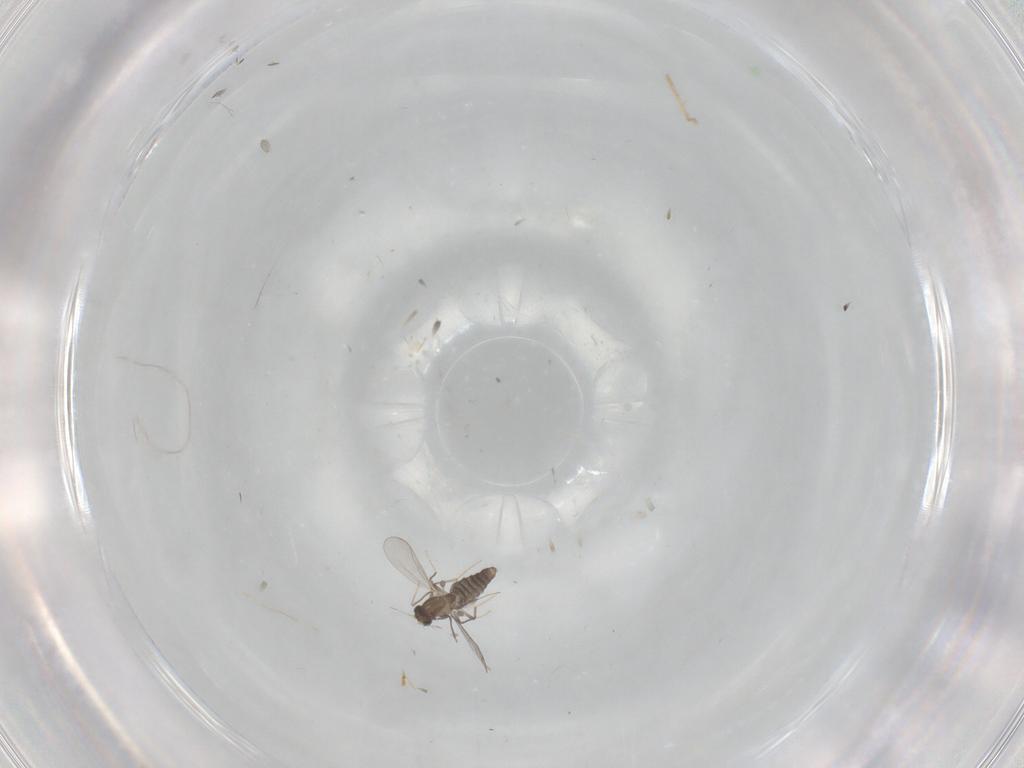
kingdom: Animalia
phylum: Arthropoda
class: Insecta
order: Diptera
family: Chironomidae
